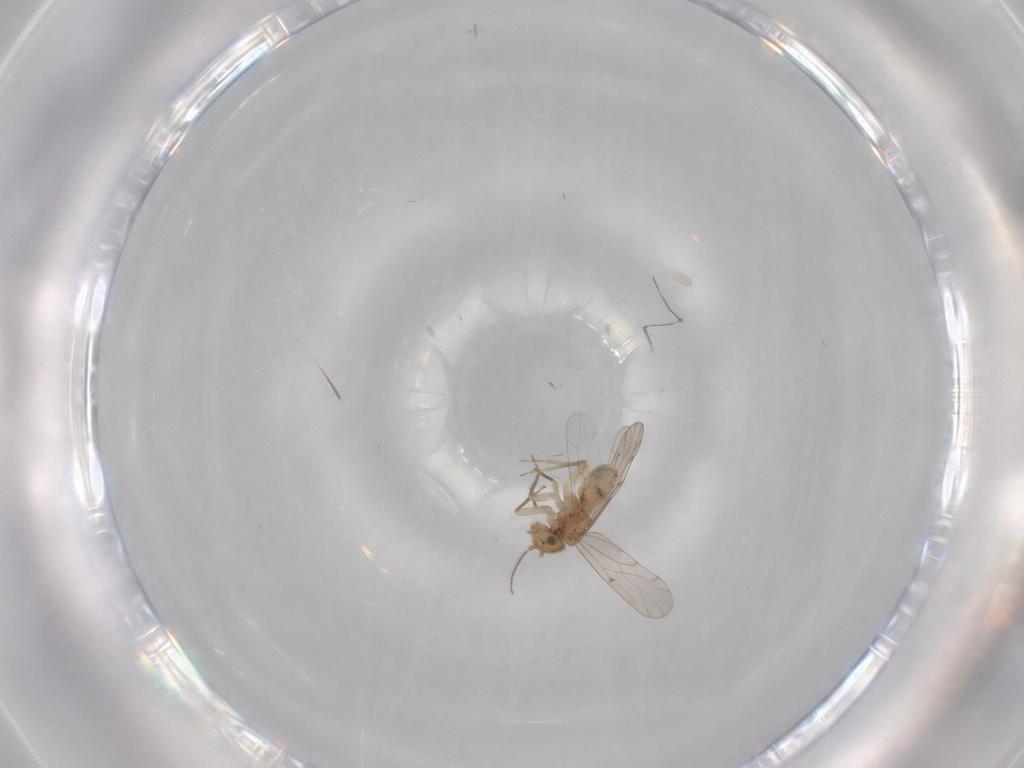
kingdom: Animalia
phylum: Arthropoda
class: Insecta
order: Psocodea
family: Ectopsocidae
